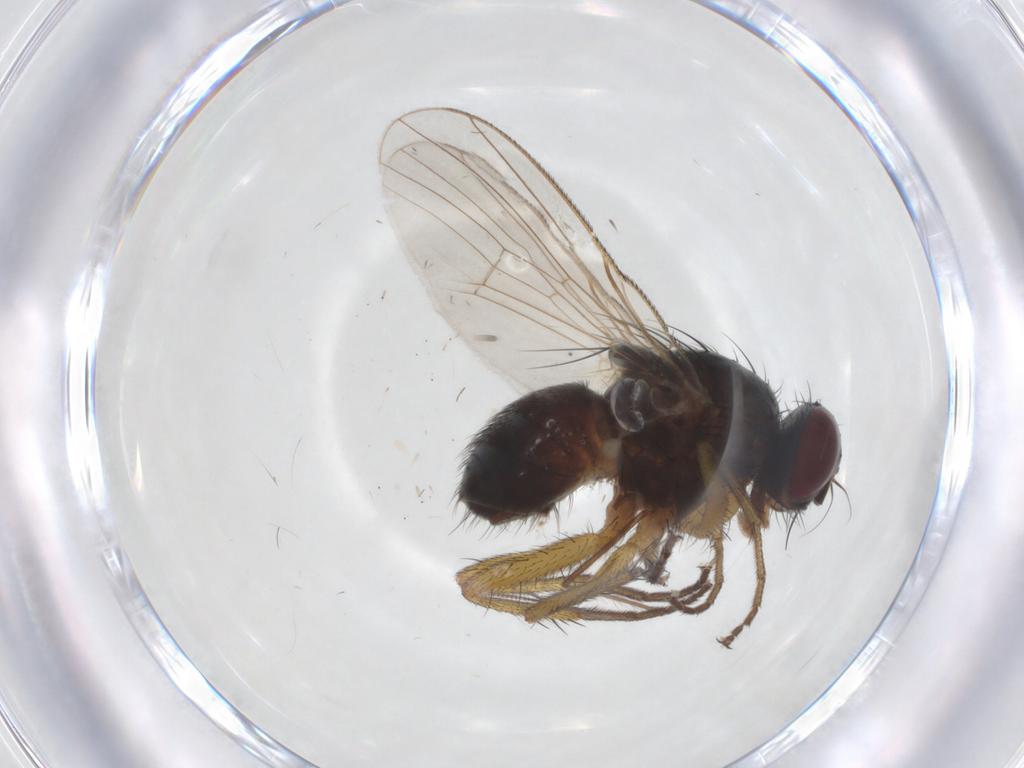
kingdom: Animalia
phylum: Arthropoda
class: Insecta
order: Diptera
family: Muscidae
